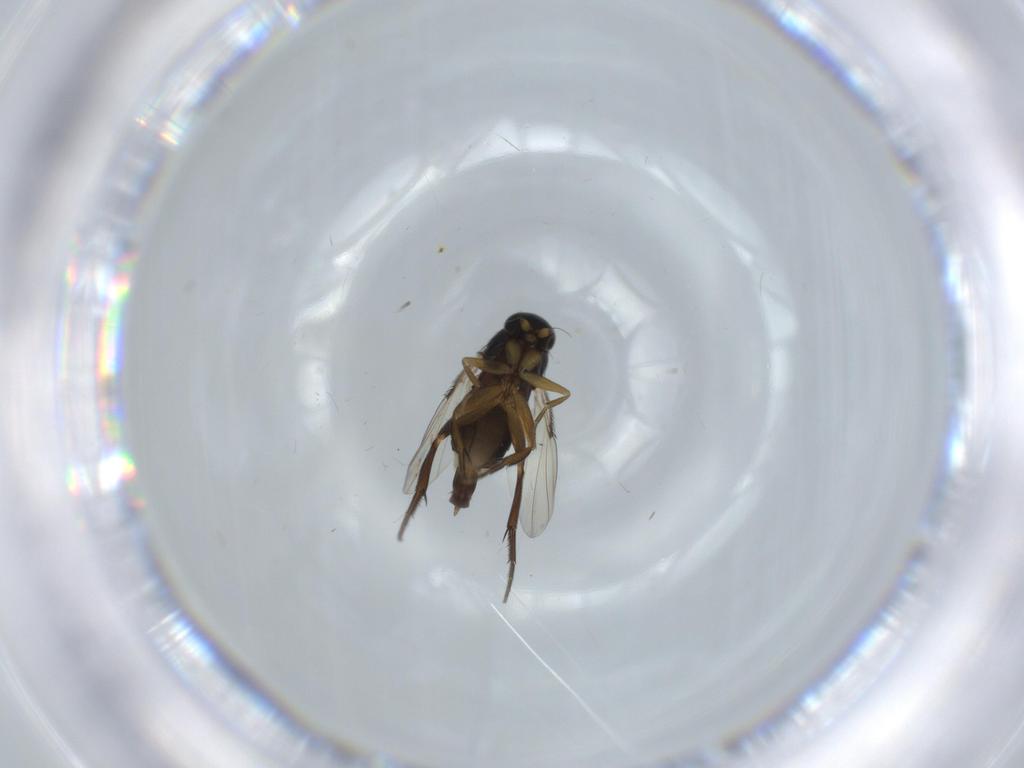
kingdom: Animalia
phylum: Arthropoda
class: Insecta
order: Diptera
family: Phoridae
